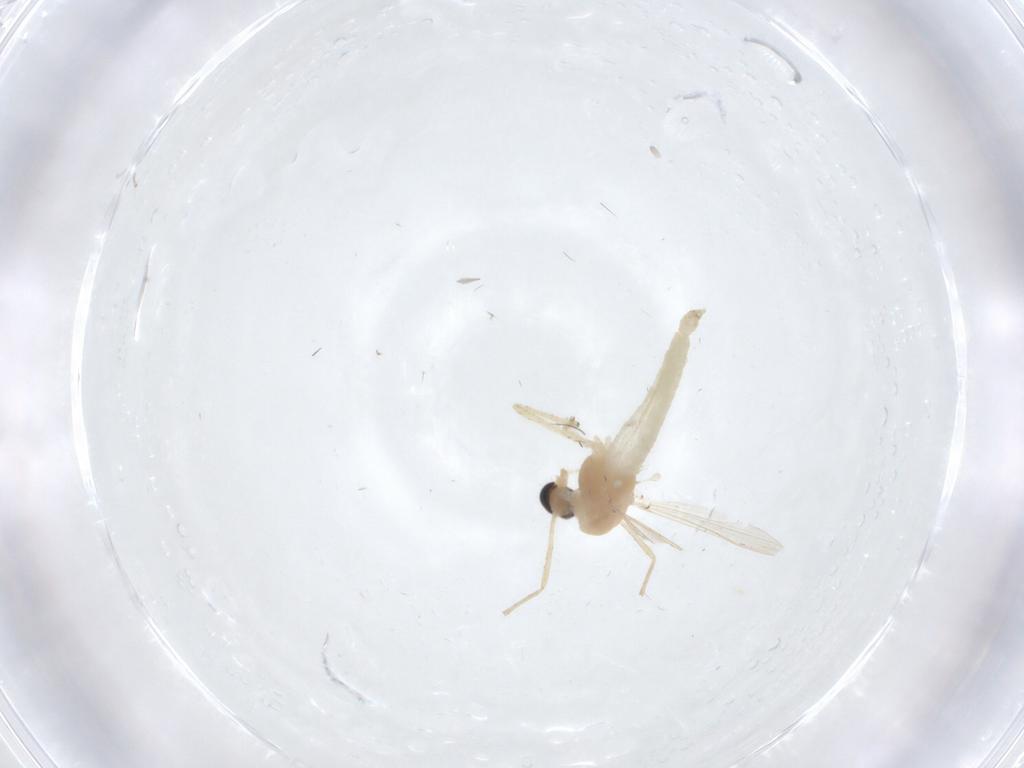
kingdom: Animalia
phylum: Arthropoda
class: Insecta
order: Diptera
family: Chironomidae
